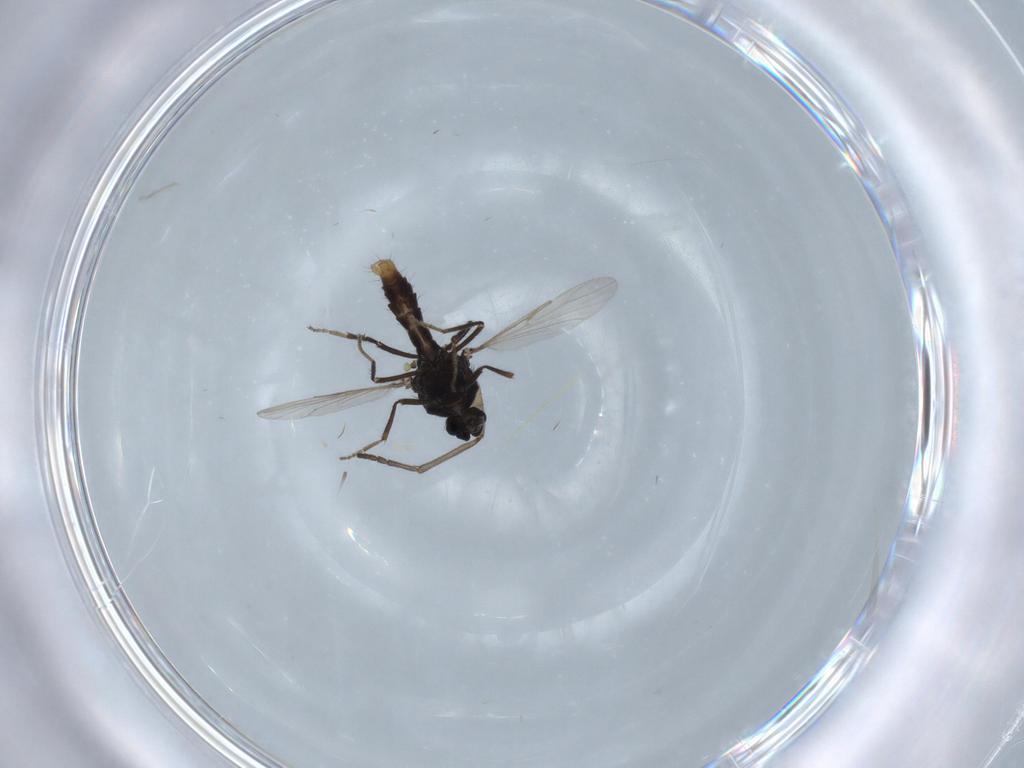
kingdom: Animalia
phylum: Arthropoda
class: Insecta
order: Diptera
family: Sciaridae
